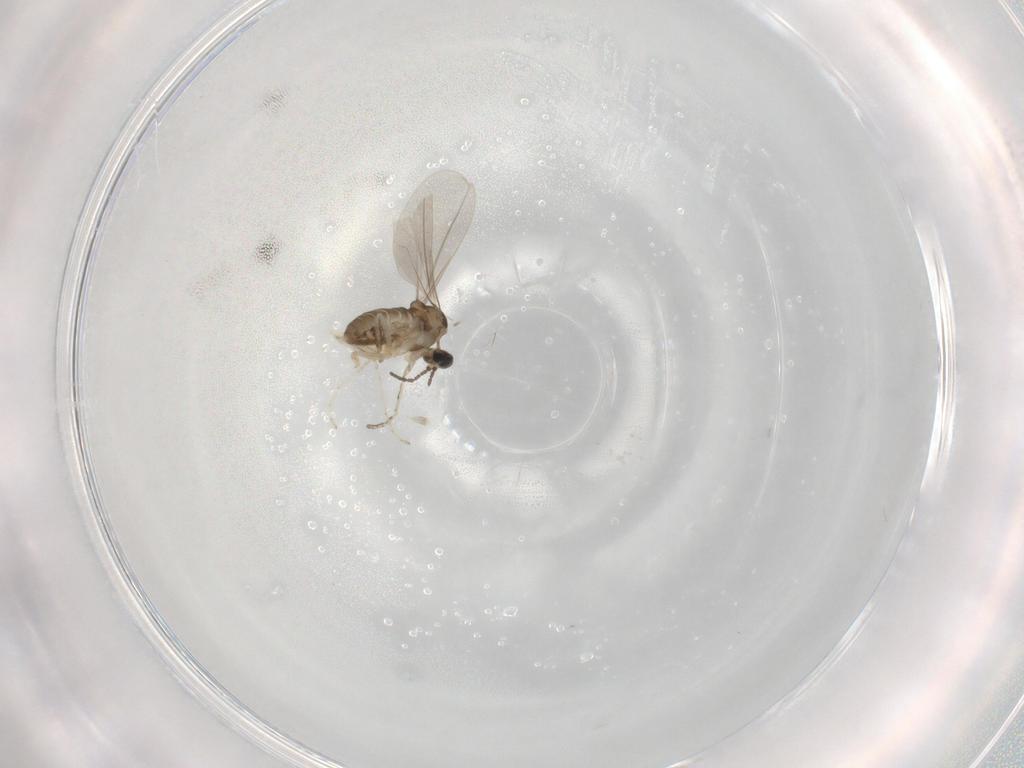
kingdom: Animalia
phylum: Arthropoda
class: Insecta
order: Diptera
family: Cecidomyiidae
